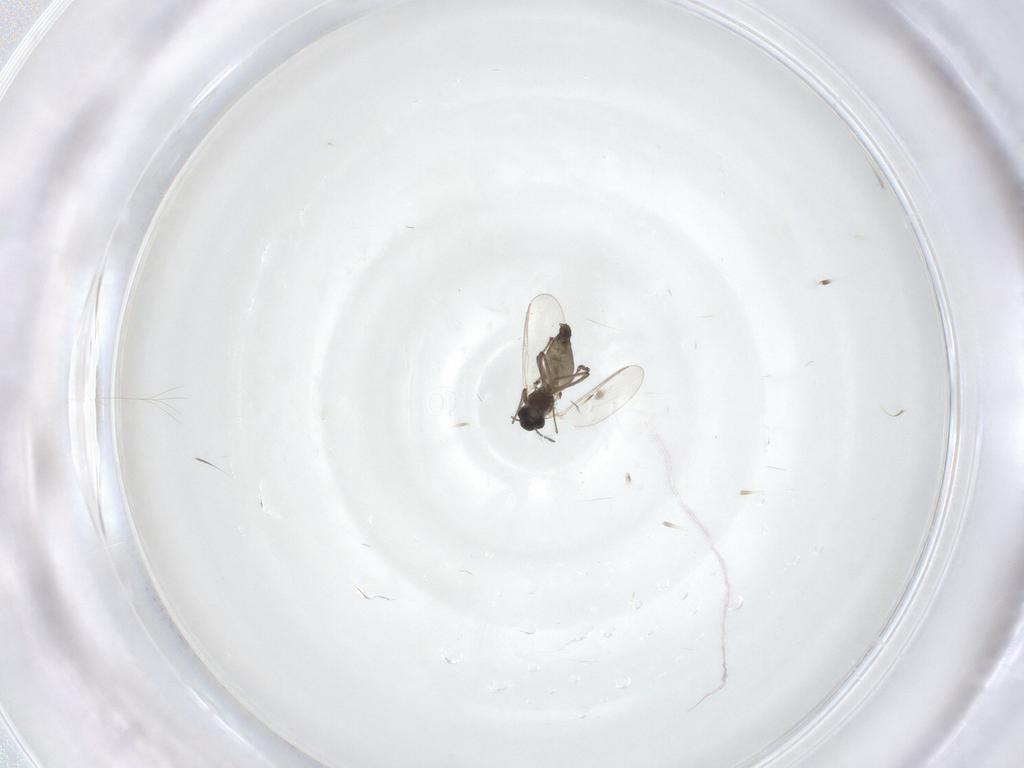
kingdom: Animalia
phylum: Arthropoda
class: Insecta
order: Diptera
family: Chironomidae
